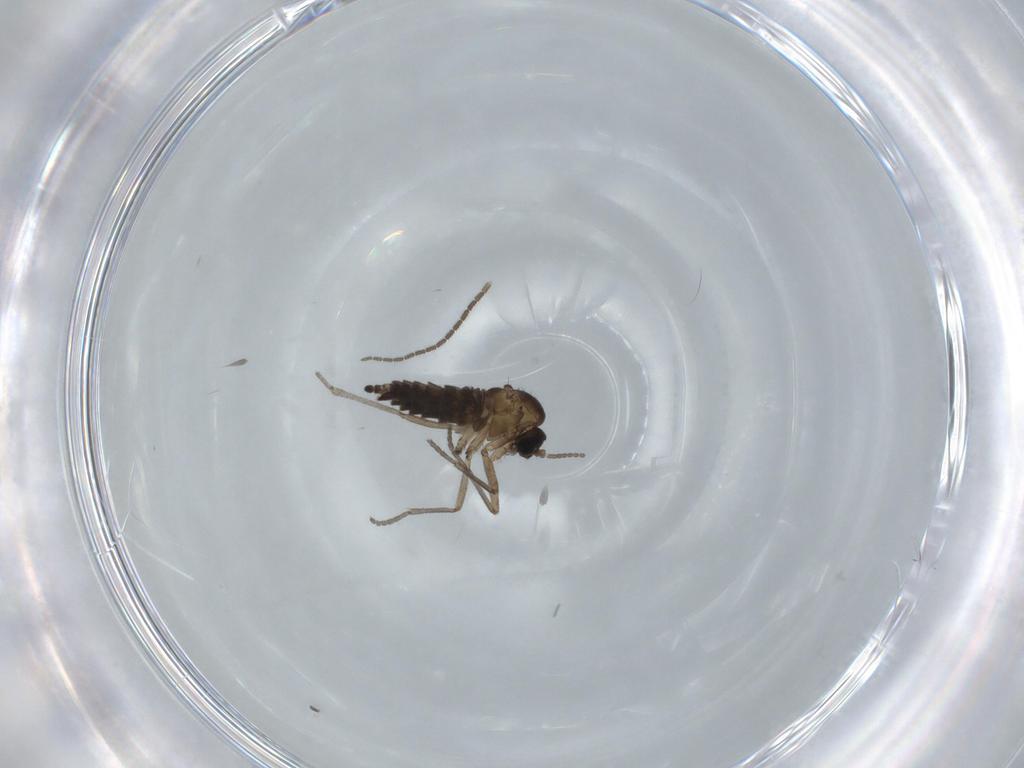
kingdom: Animalia
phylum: Arthropoda
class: Insecta
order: Diptera
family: Sciaridae
